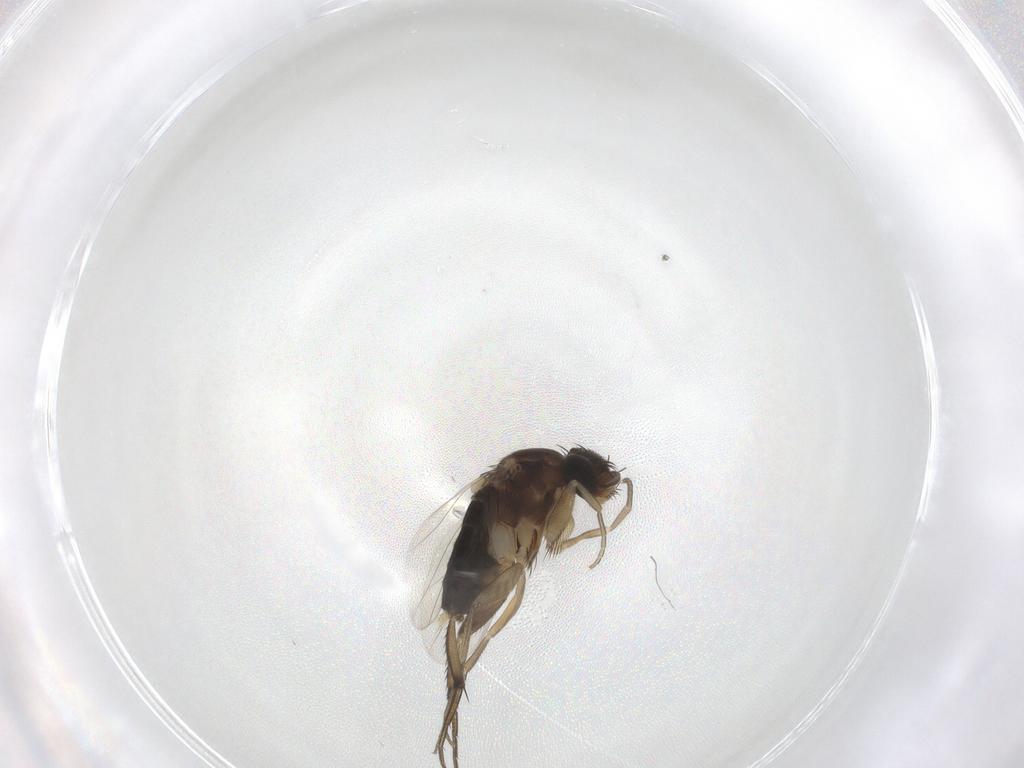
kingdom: Animalia
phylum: Arthropoda
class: Insecta
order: Diptera
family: Phoridae
